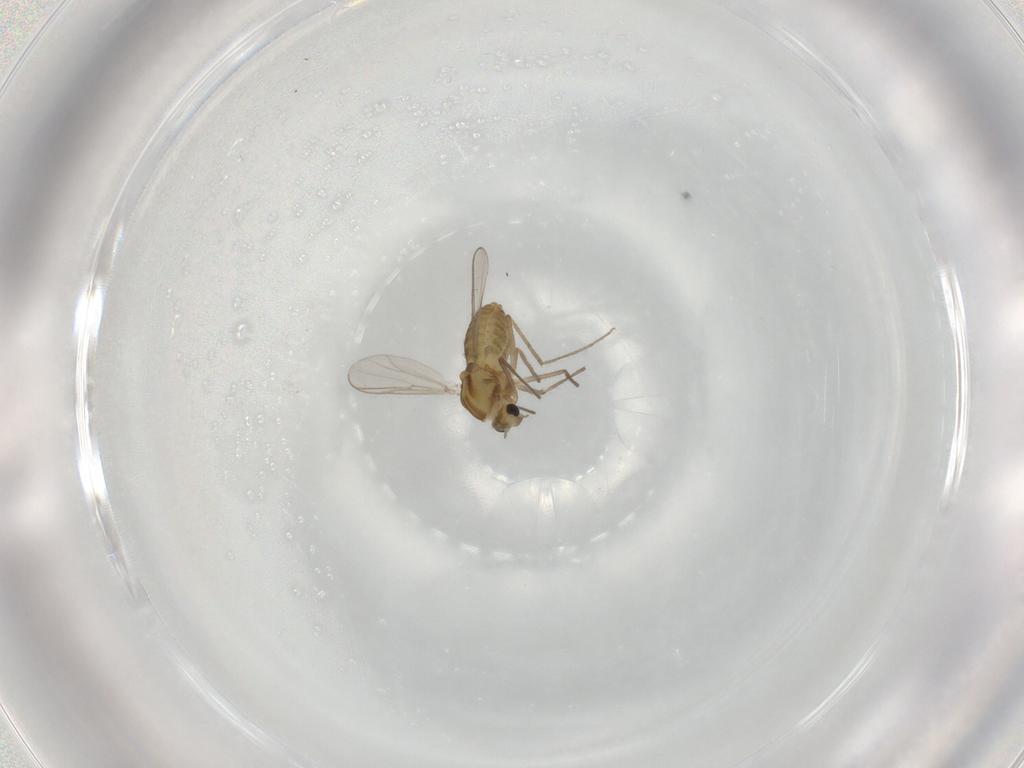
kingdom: Animalia
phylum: Arthropoda
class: Insecta
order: Diptera
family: Chironomidae
